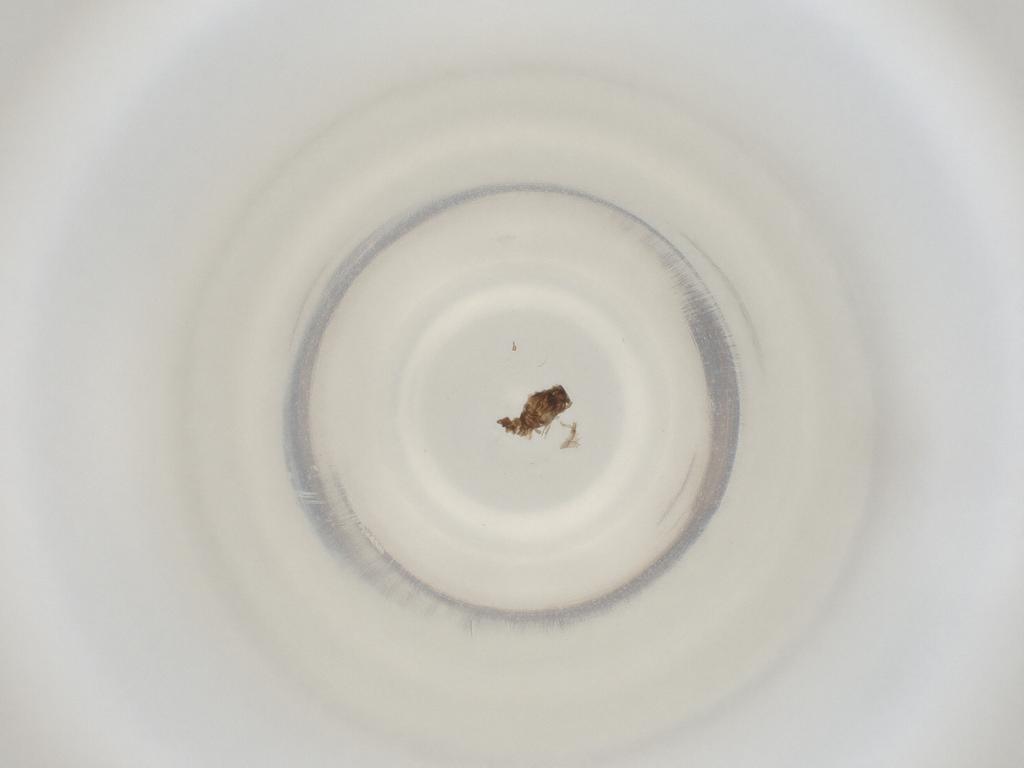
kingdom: Animalia
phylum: Arthropoda
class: Insecta
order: Diptera
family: Cecidomyiidae
